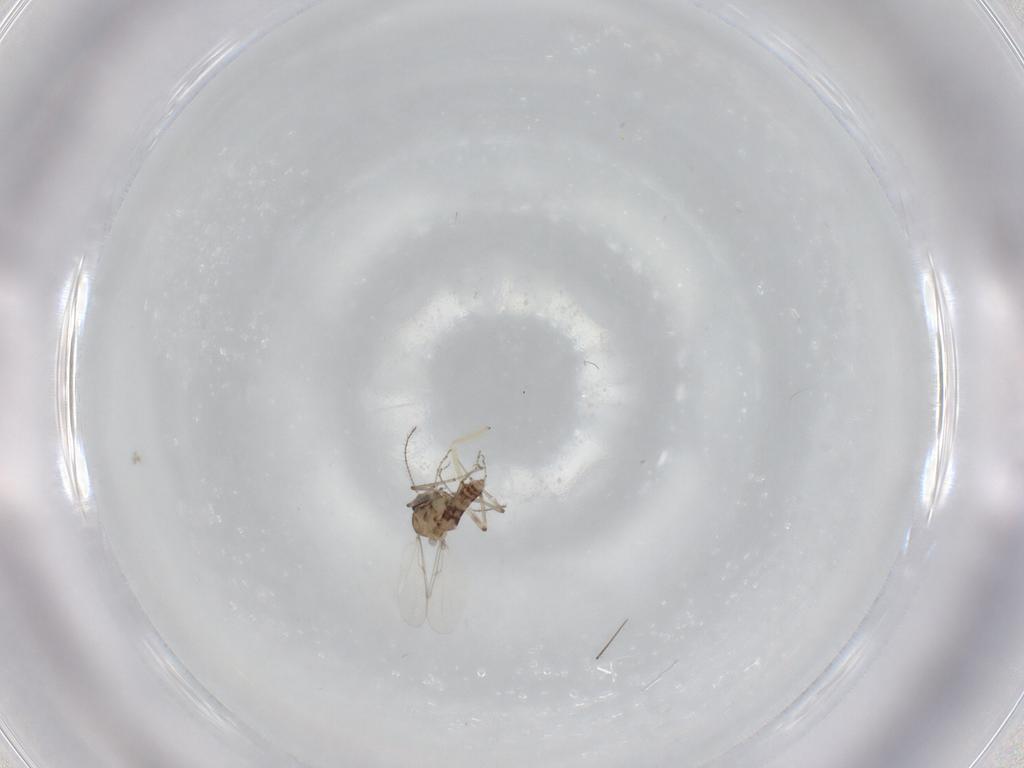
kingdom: Animalia
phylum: Arthropoda
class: Insecta
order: Diptera
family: Ceratopogonidae
